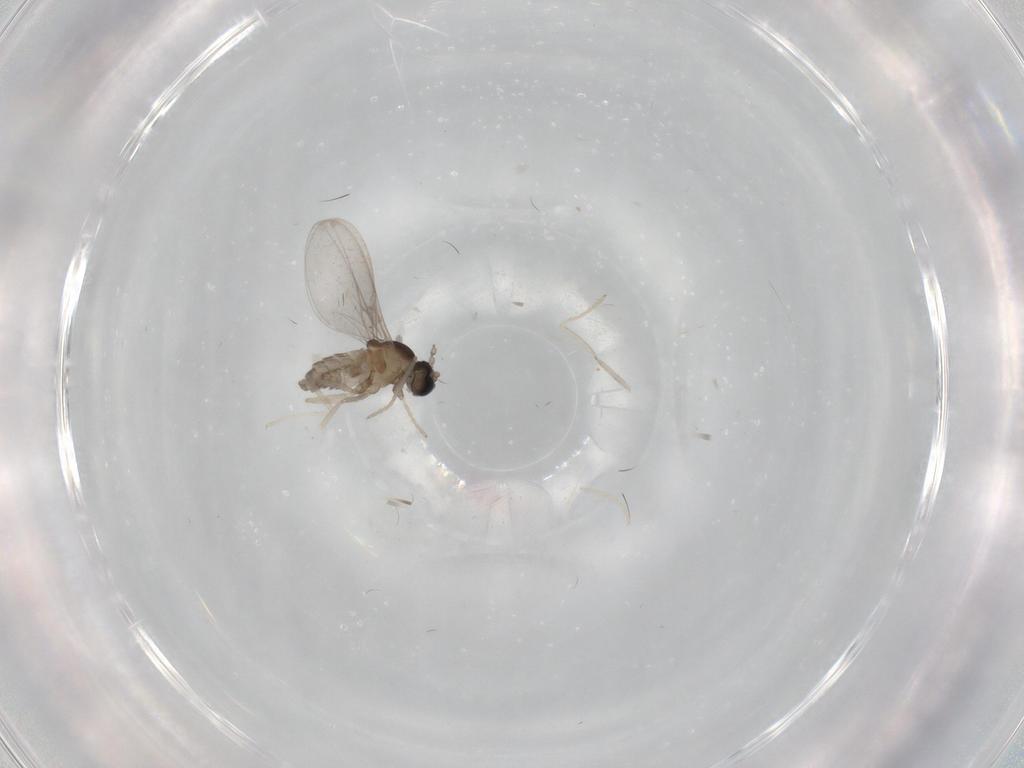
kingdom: Animalia
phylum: Arthropoda
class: Insecta
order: Diptera
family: Cecidomyiidae
